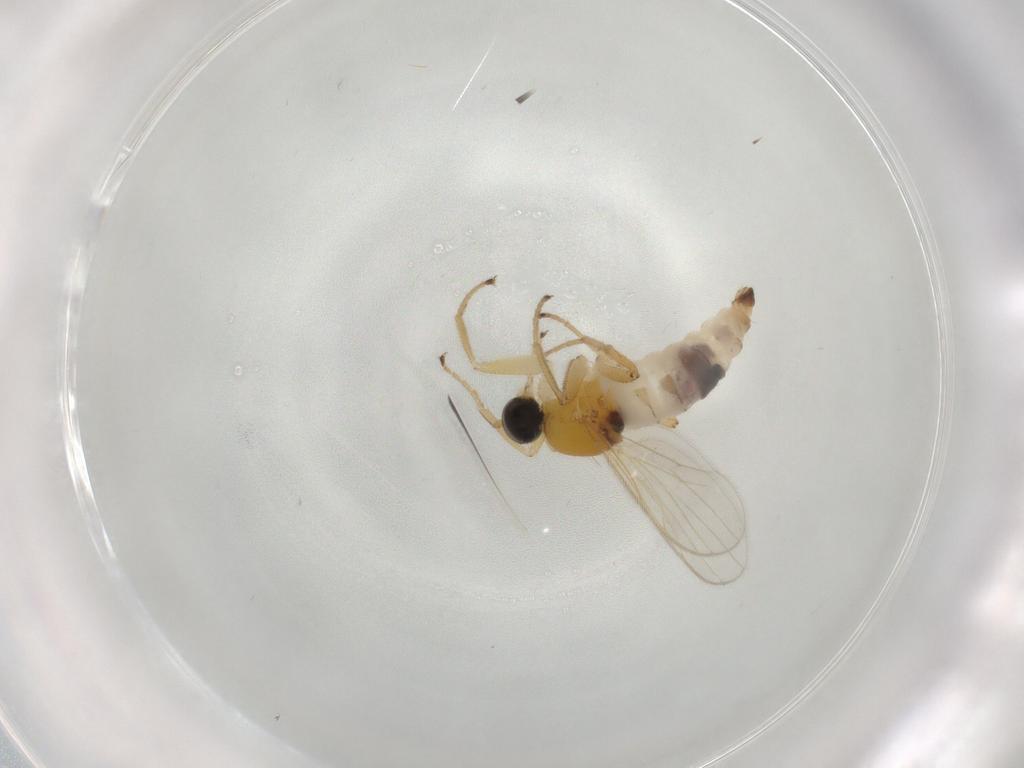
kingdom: Animalia
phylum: Arthropoda
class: Insecta
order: Diptera
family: Hybotidae
